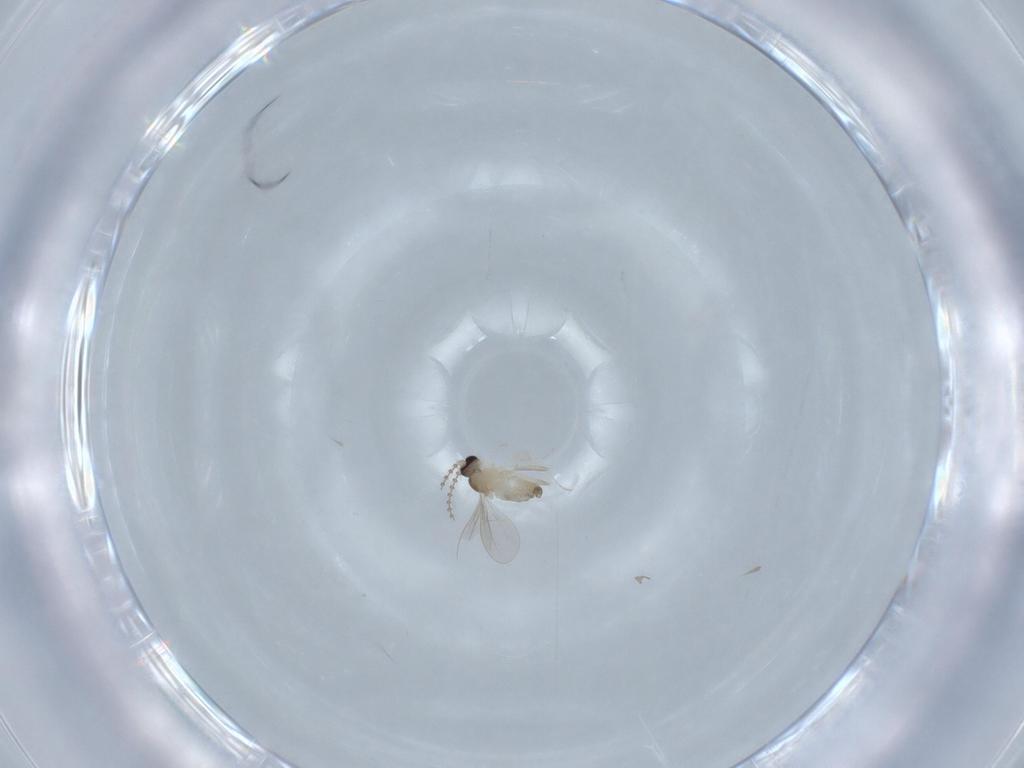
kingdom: Animalia
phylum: Arthropoda
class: Insecta
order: Diptera
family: Cecidomyiidae
